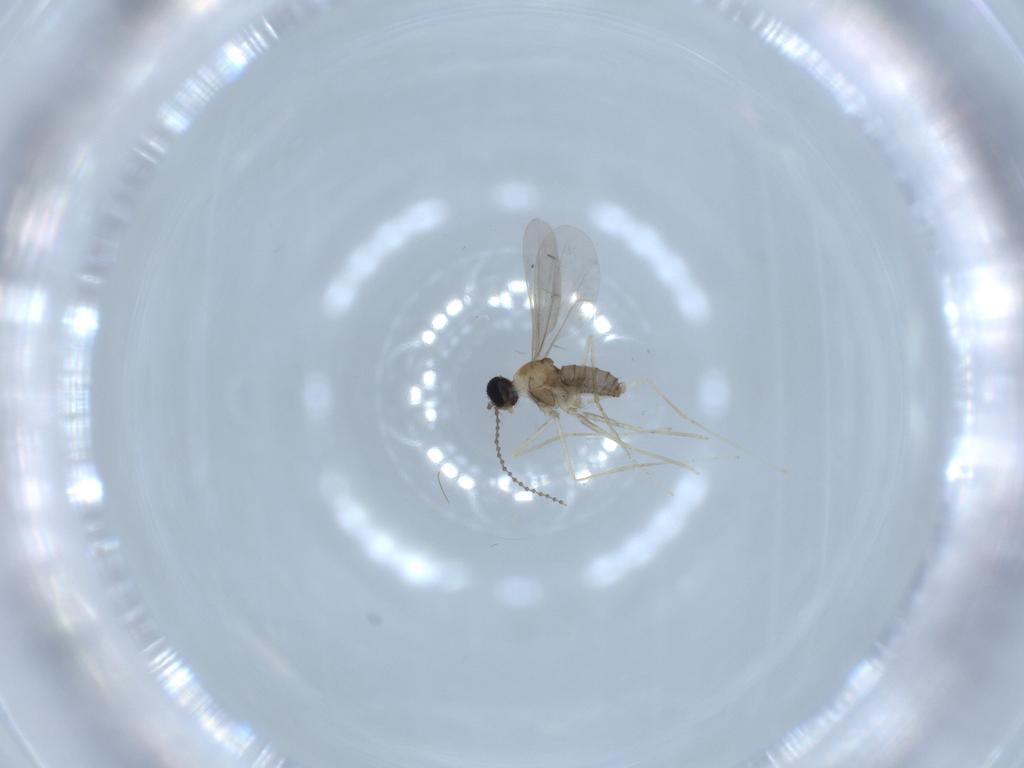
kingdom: Animalia
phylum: Arthropoda
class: Insecta
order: Diptera
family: Cecidomyiidae
